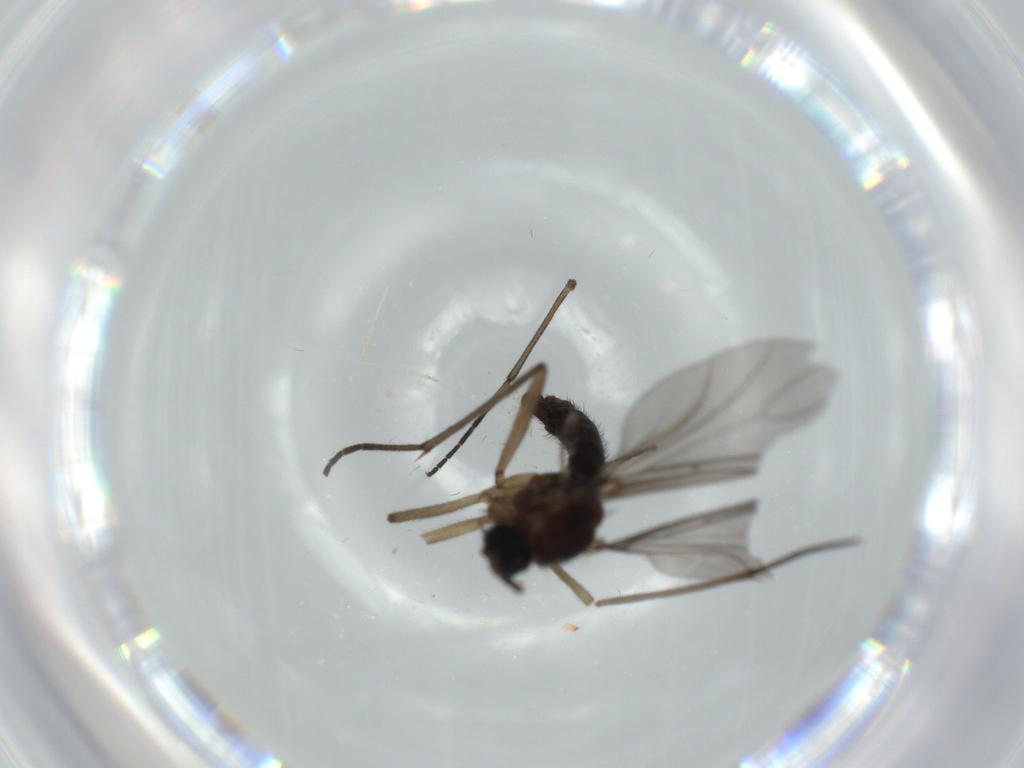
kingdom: Animalia
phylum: Arthropoda
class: Insecta
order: Diptera
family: Sciaridae
